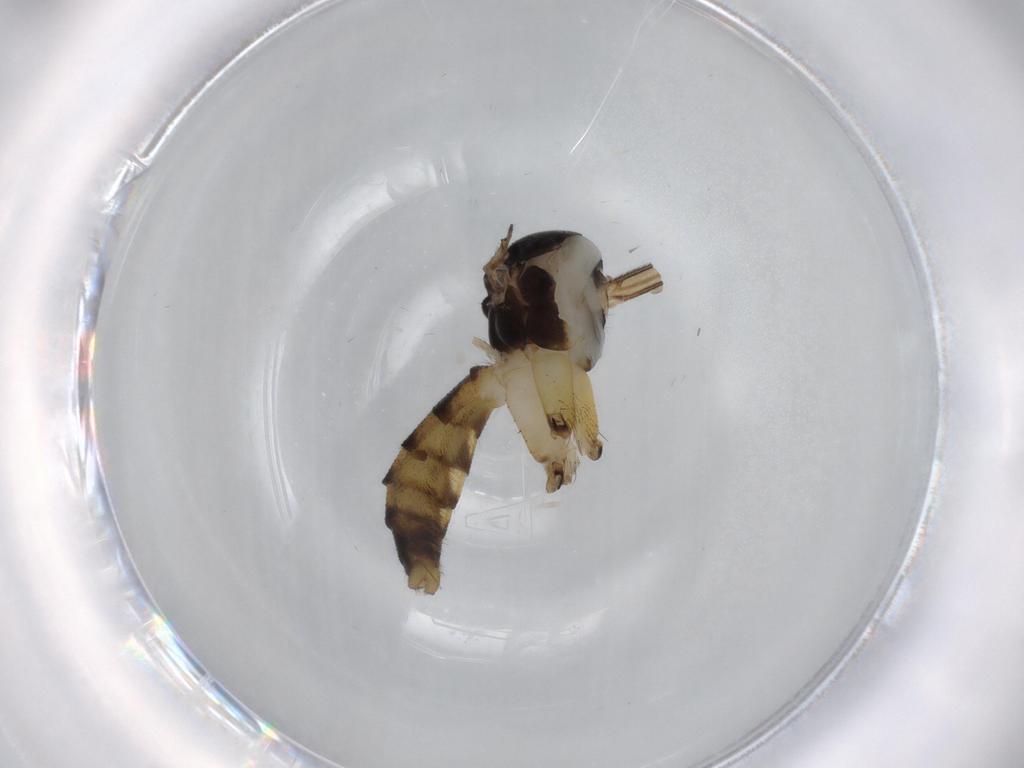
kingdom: Animalia
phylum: Arthropoda
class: Insecta
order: Diptera
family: Mycetophilidae
